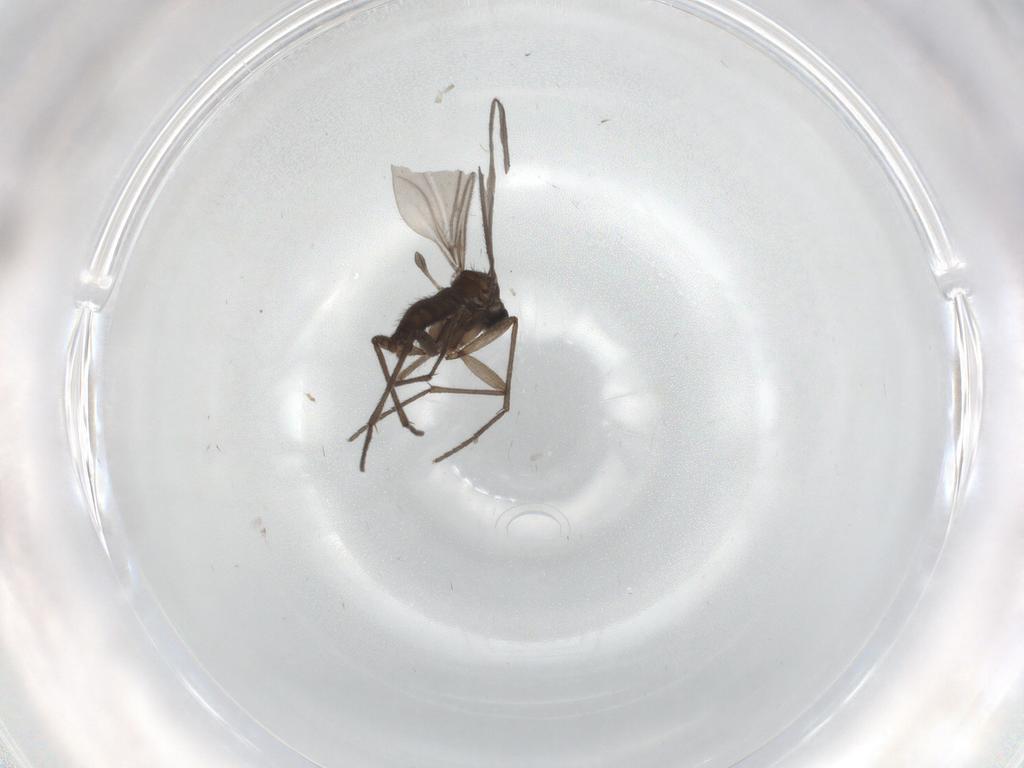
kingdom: Animalia
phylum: Arthropoda
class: Insecta
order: Diptera
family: Sciaridae
